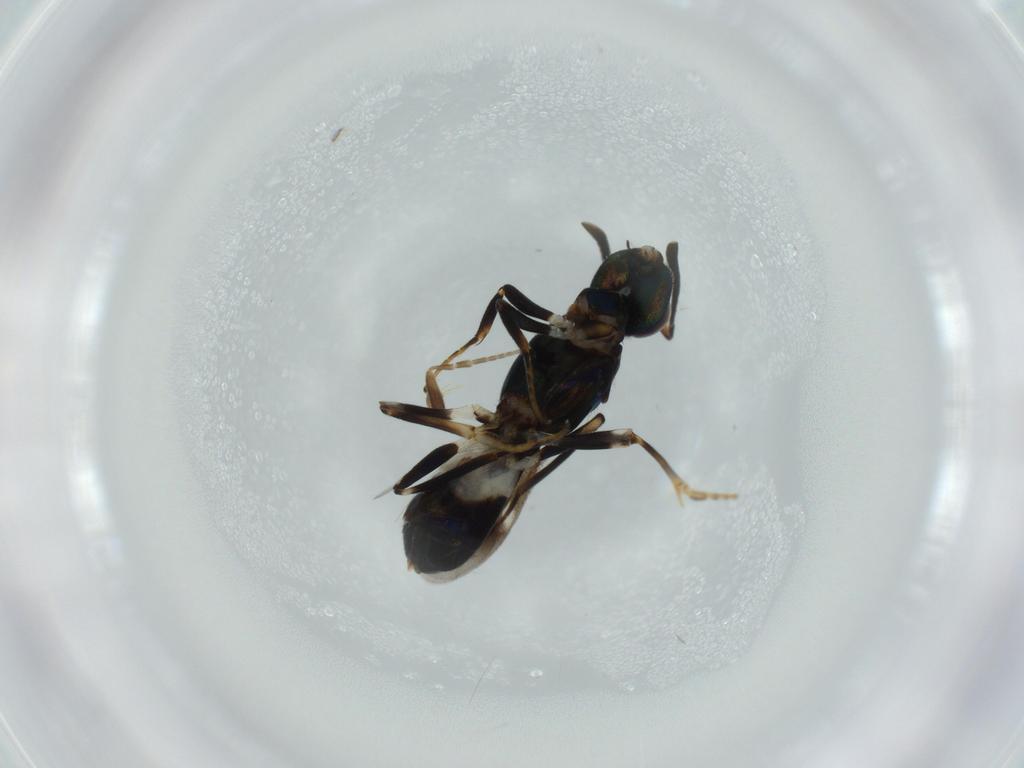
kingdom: Animalia
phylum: Arthropoda
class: Insecta
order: Hymenoptera
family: Eupelmidae
